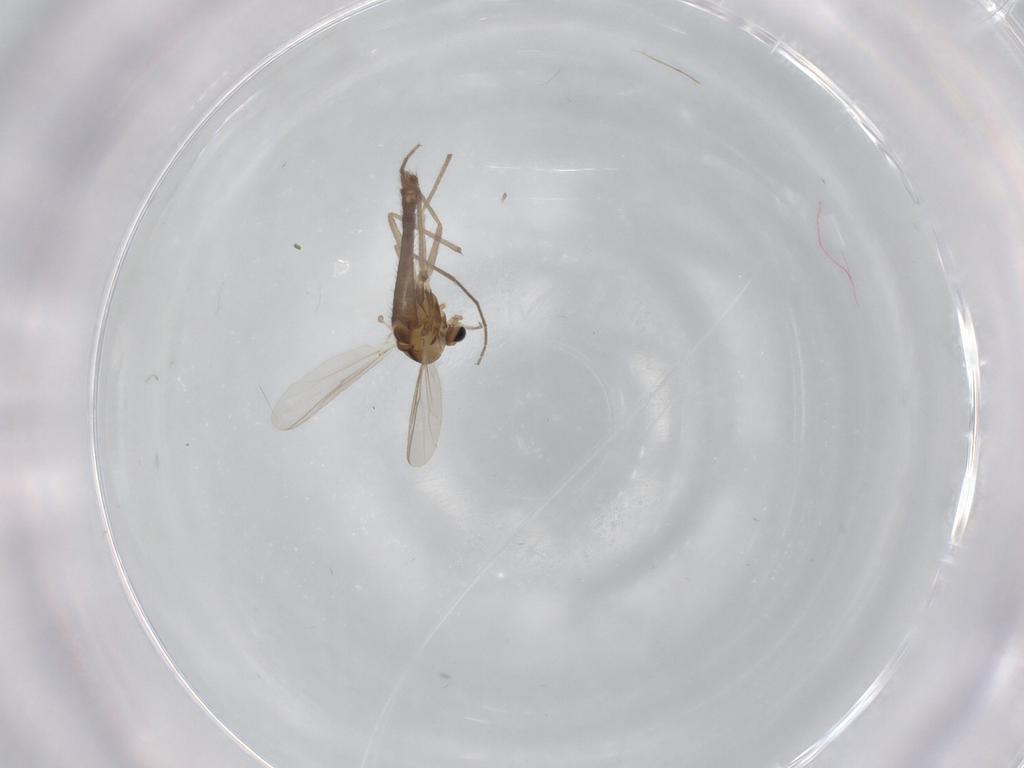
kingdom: Animalia
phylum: Arthropoda
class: Insecta
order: Diptera
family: Chironomidae
